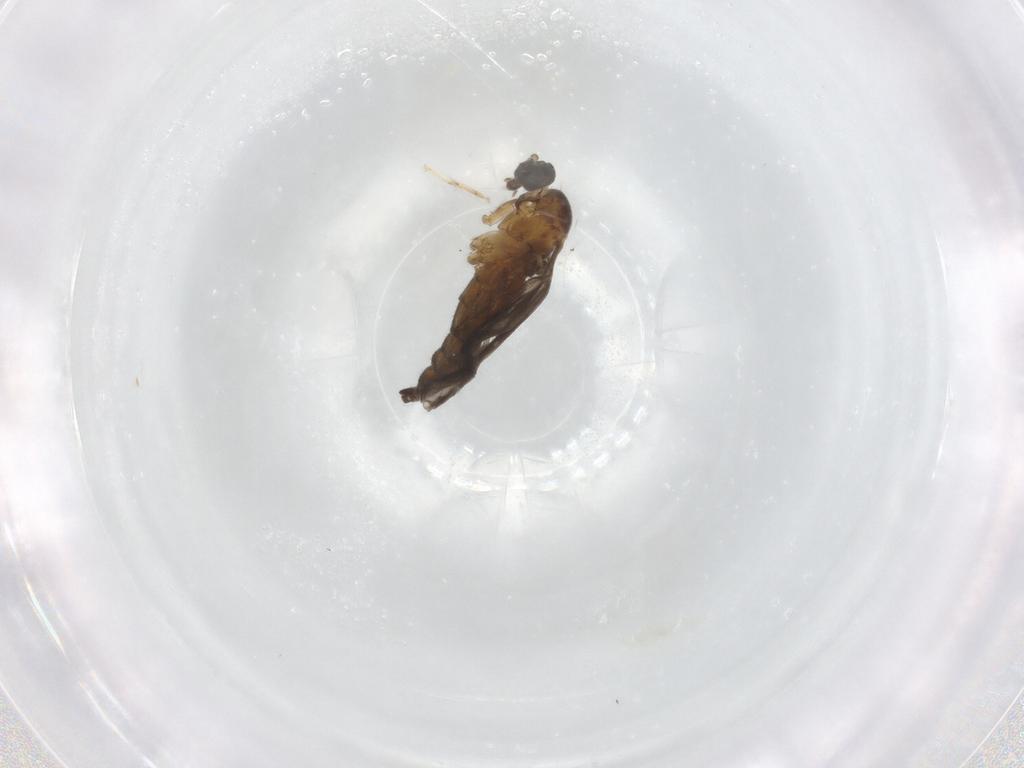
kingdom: Animalia
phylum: Arthropoda
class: Insecta
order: Diptera
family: Sciaridae
